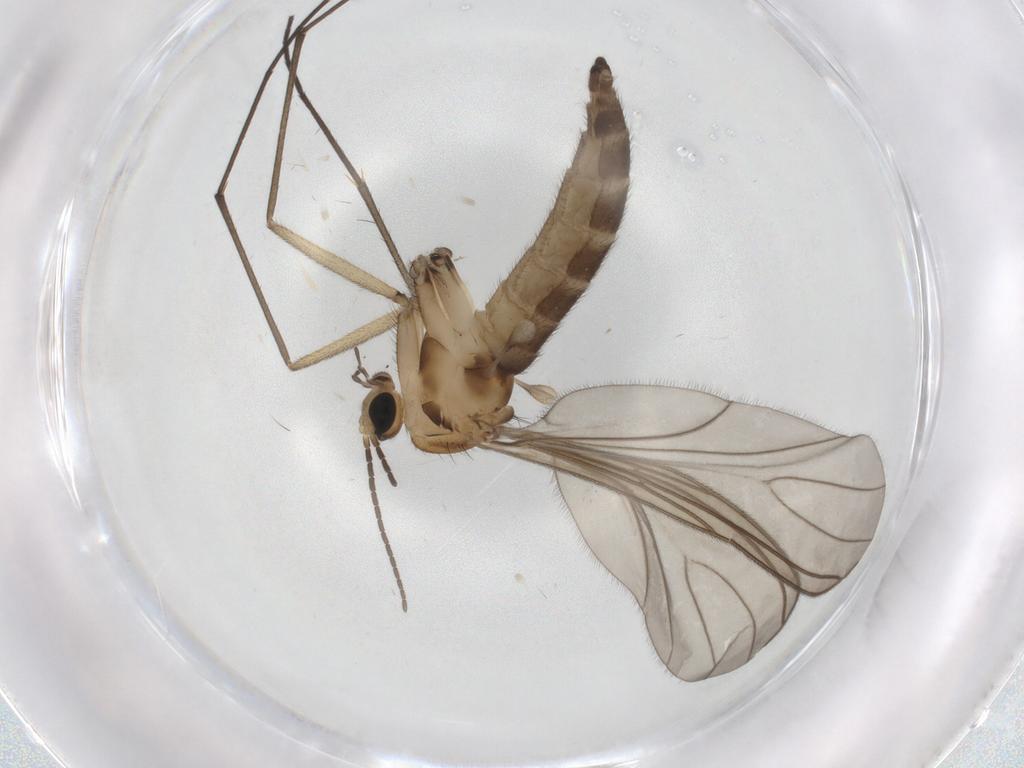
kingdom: Animalia
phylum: Arthropoda
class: Insecta
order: Diptera
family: Sciaridae
